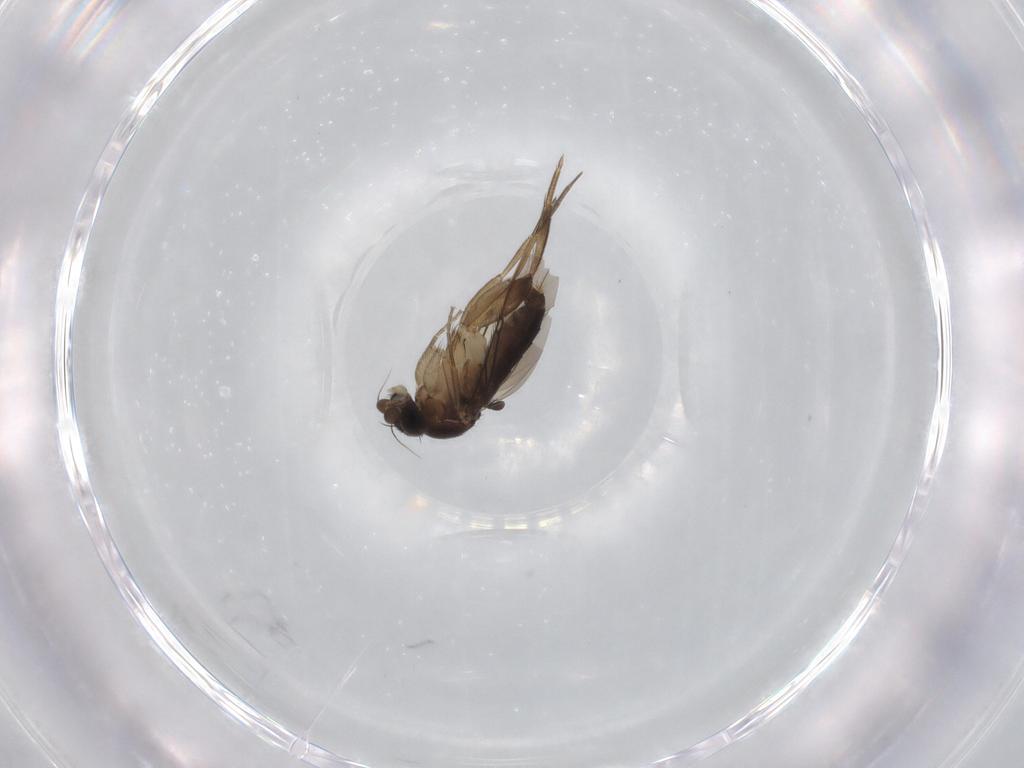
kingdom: Animalia
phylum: Arthropoda
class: Insecta
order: Diptera
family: Phoridae
